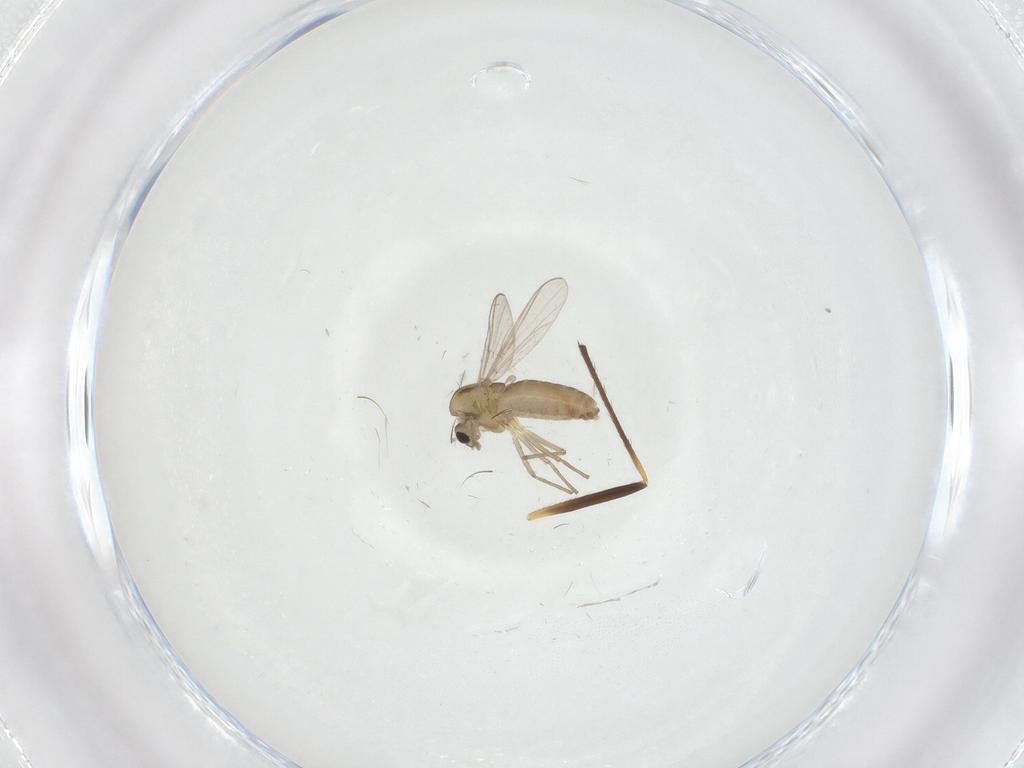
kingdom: Animalia
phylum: Arthropoda
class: Insecta
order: Diptera
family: Chironomidae
